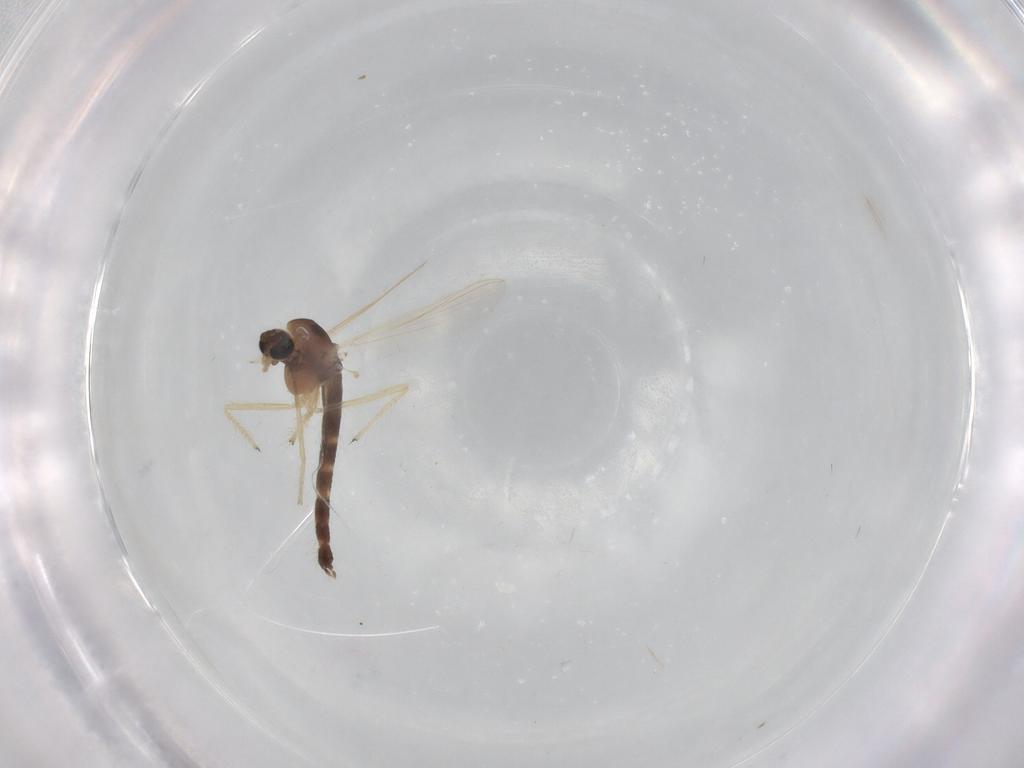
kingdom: Animalia
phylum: Arthropoda
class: Insecta
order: Diptera
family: Chironomidae
